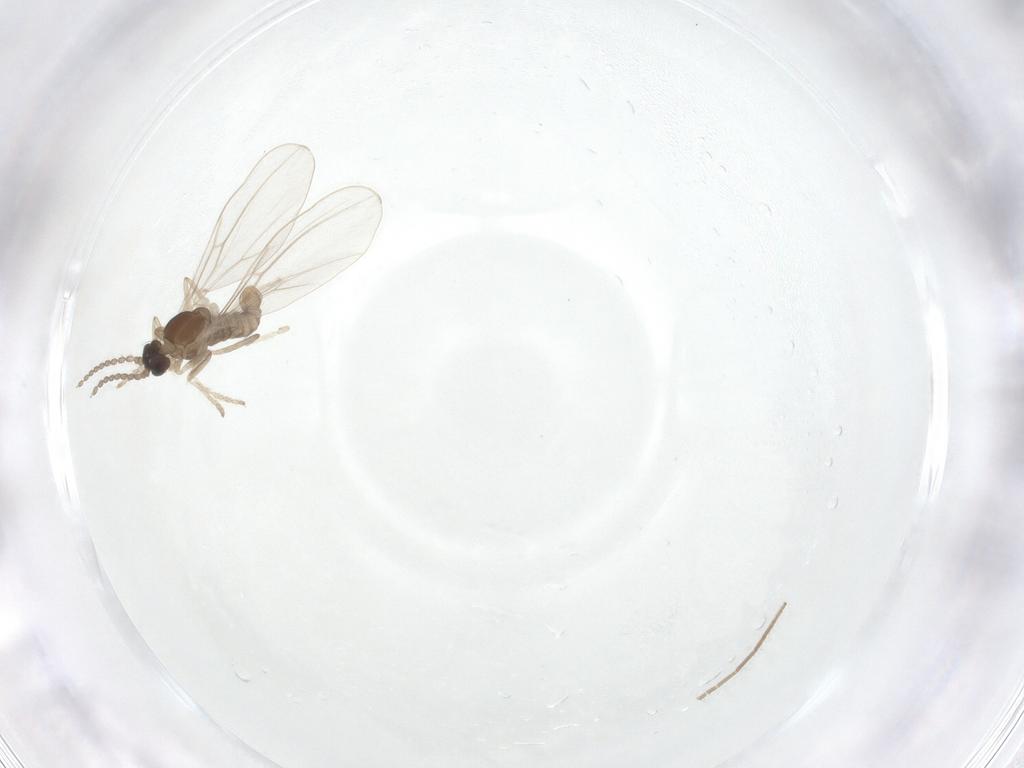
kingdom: Animalia
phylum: Arthropoda
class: Insecta
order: Diptera
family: Cecidomyiidae
